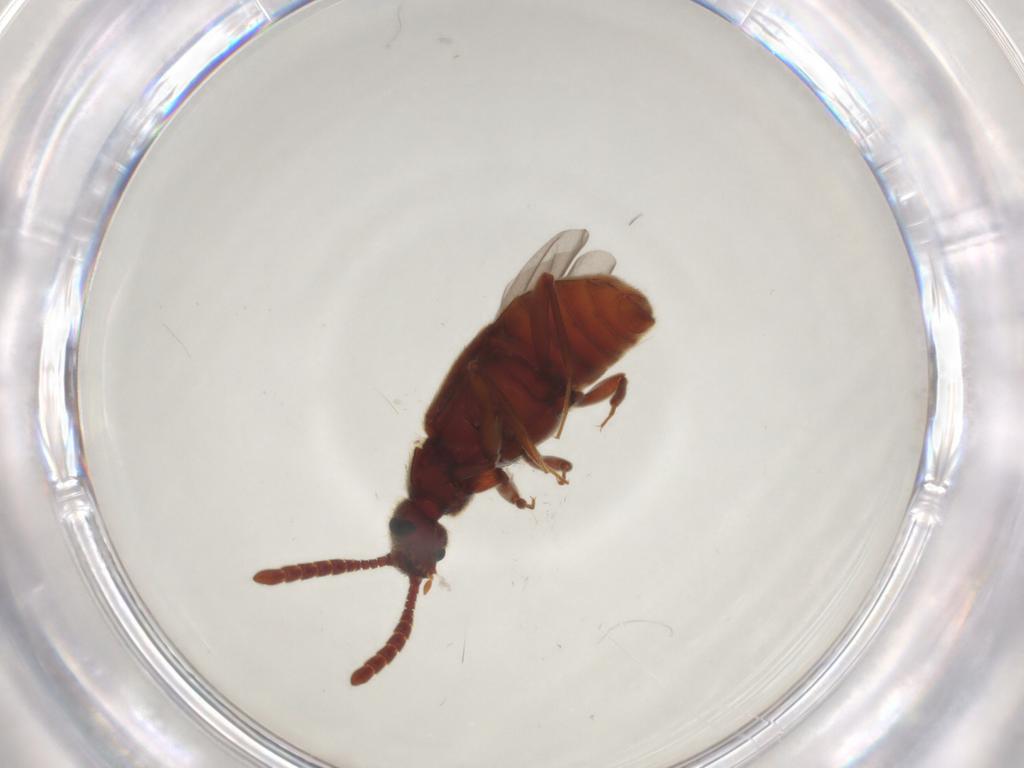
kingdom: Animalia
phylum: Arthropoda
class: Insecta
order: Coleoptera
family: Staphylinidae
